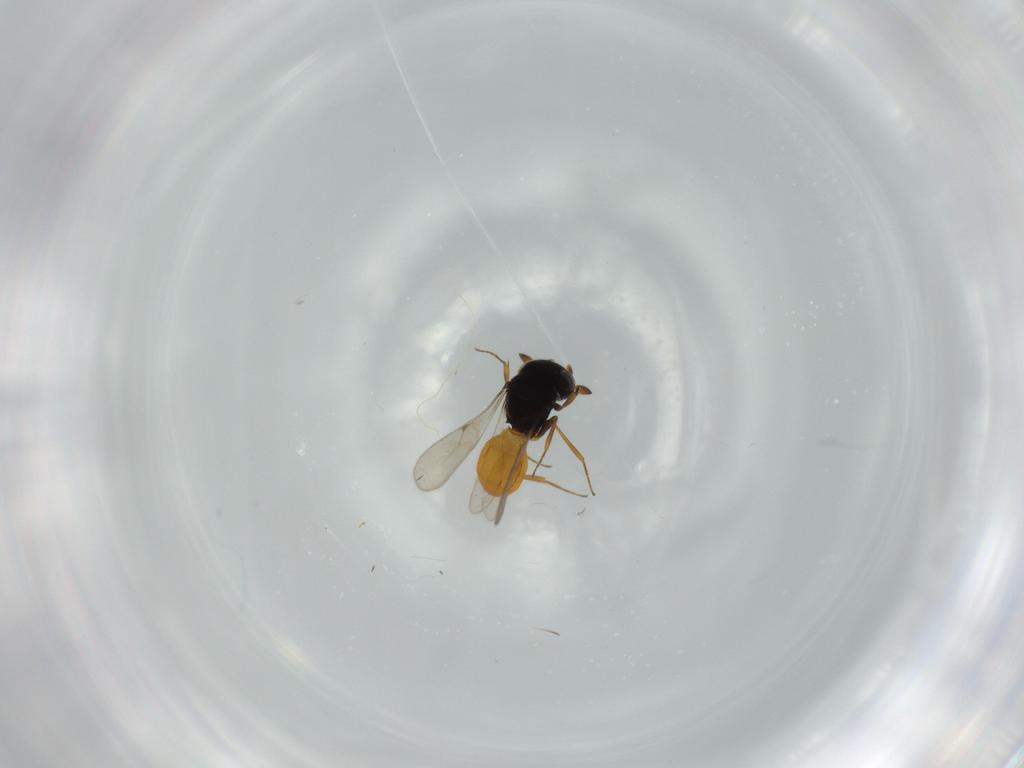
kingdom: Animalia
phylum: Arthropoda
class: Insecta
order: Hymenoptera
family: Scelionidae
